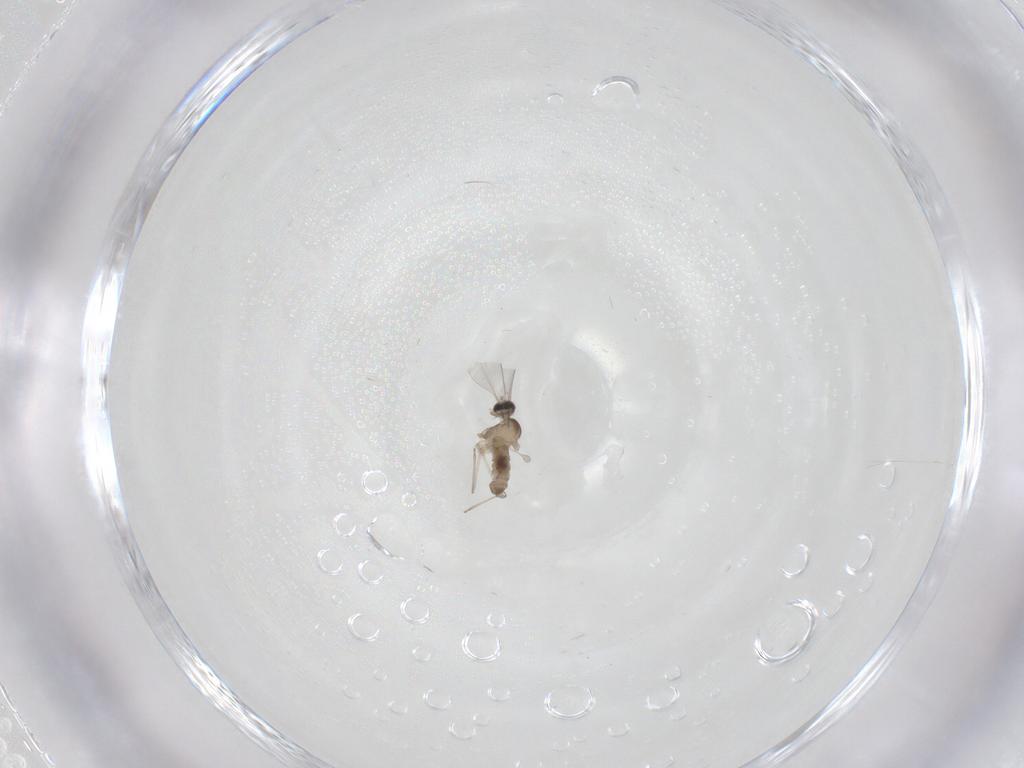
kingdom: Animalia
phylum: Arthropoda
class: Insecta
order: Diptera
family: Cecidomyiidae
